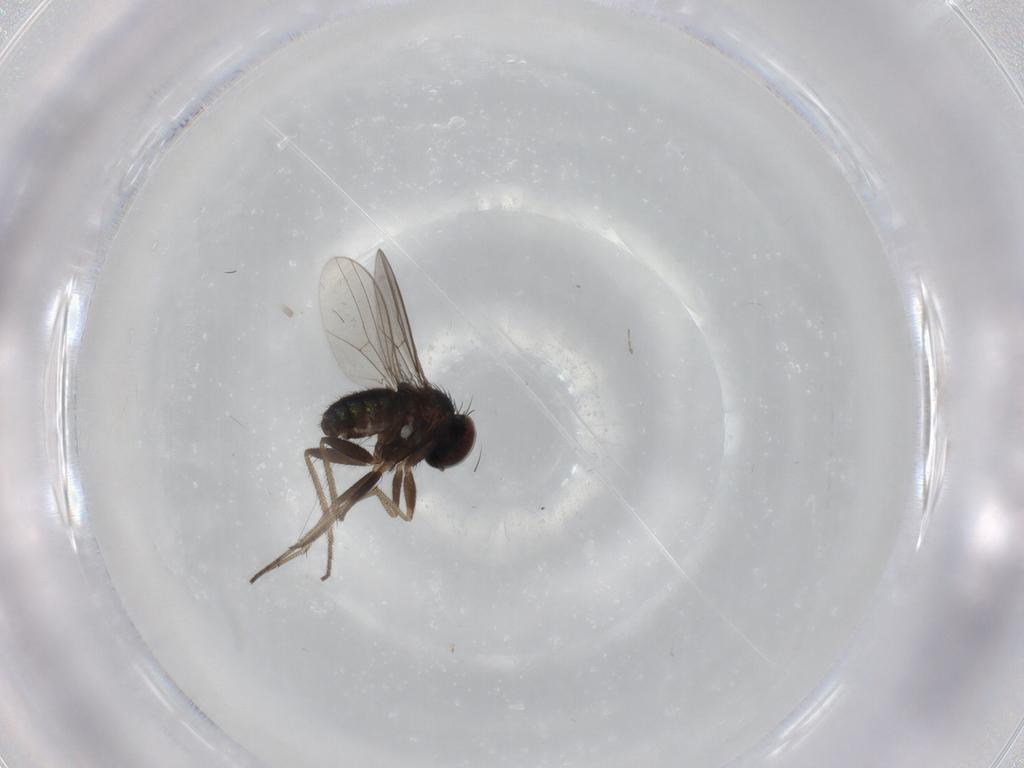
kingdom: Animalia
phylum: Arthropoda
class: Insecta
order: Diptera
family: Dolichopodidae
